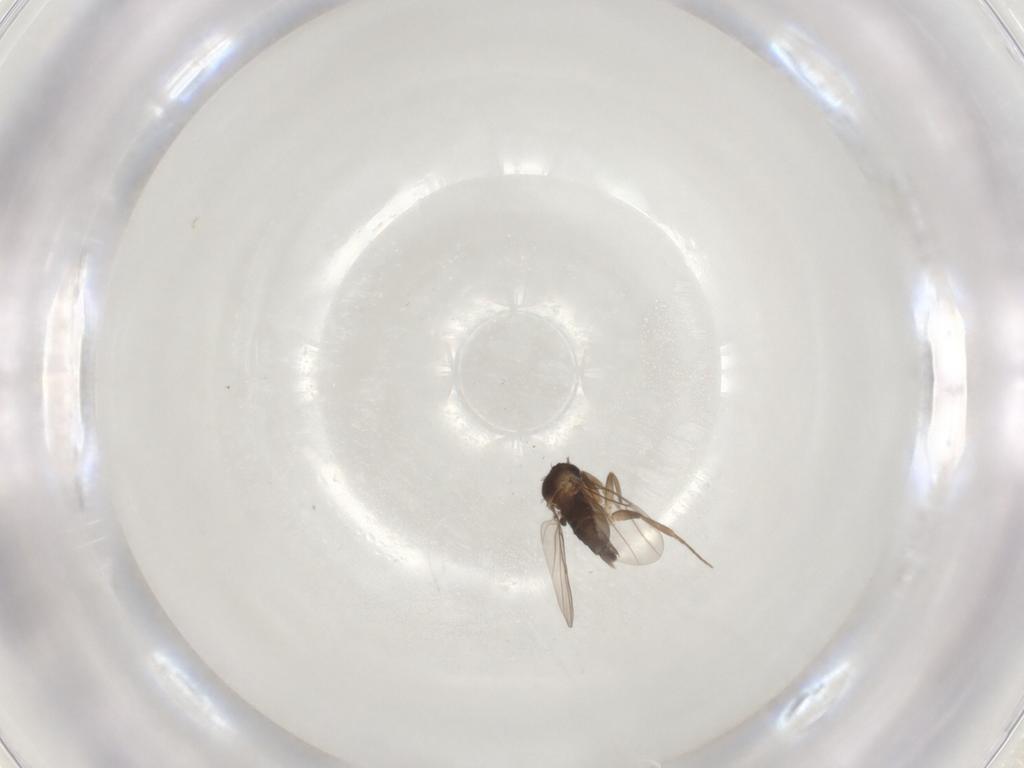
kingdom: Animalia
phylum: Arthropoda
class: Insecta
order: Diptera
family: Phoridae
